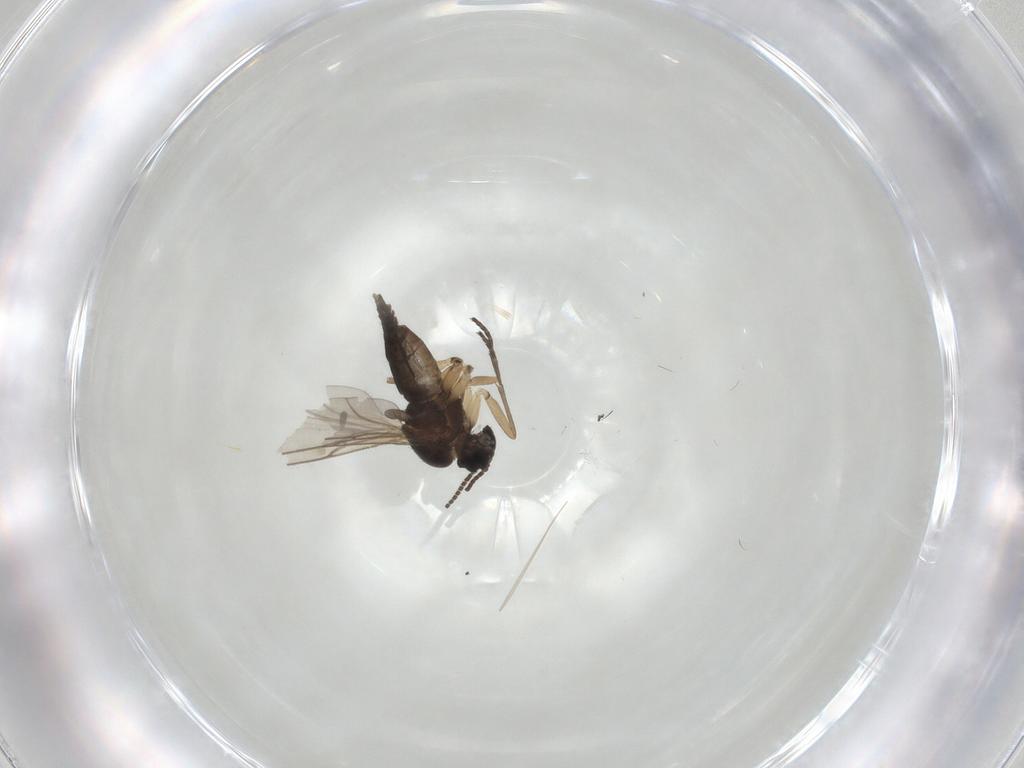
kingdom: Animalia
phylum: Arthropoda
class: Insecta
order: Diptera
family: Sciaridae
